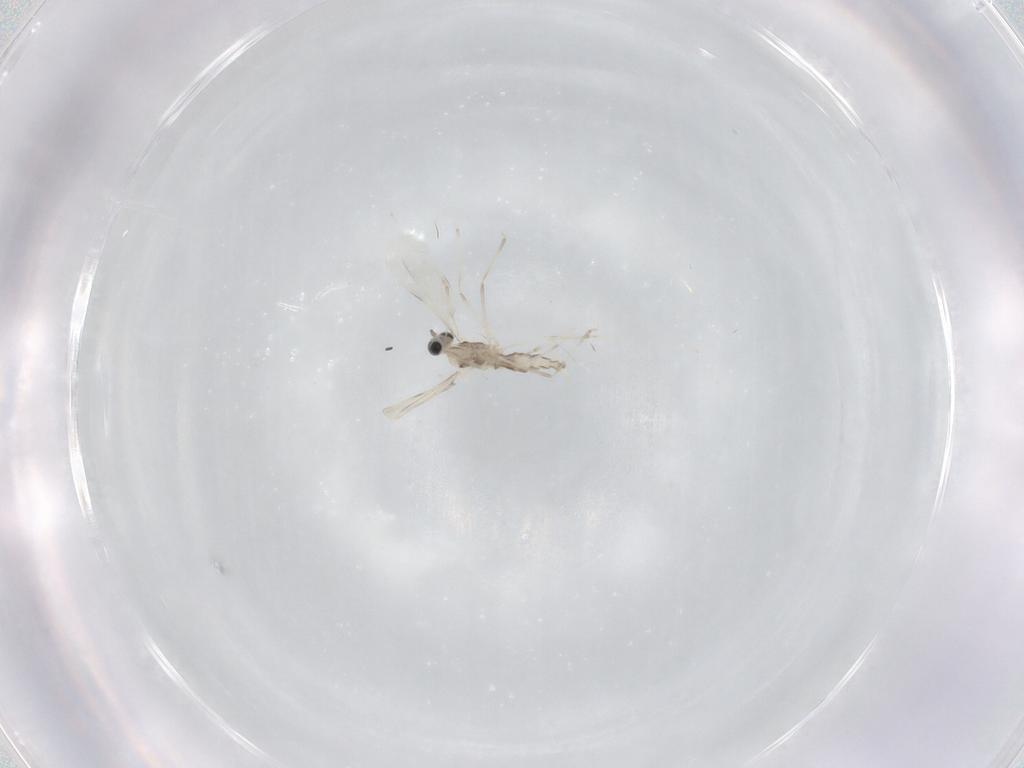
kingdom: Animalia
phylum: Arthropoda
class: Insecta
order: Diptera
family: Cecidomyiidae
